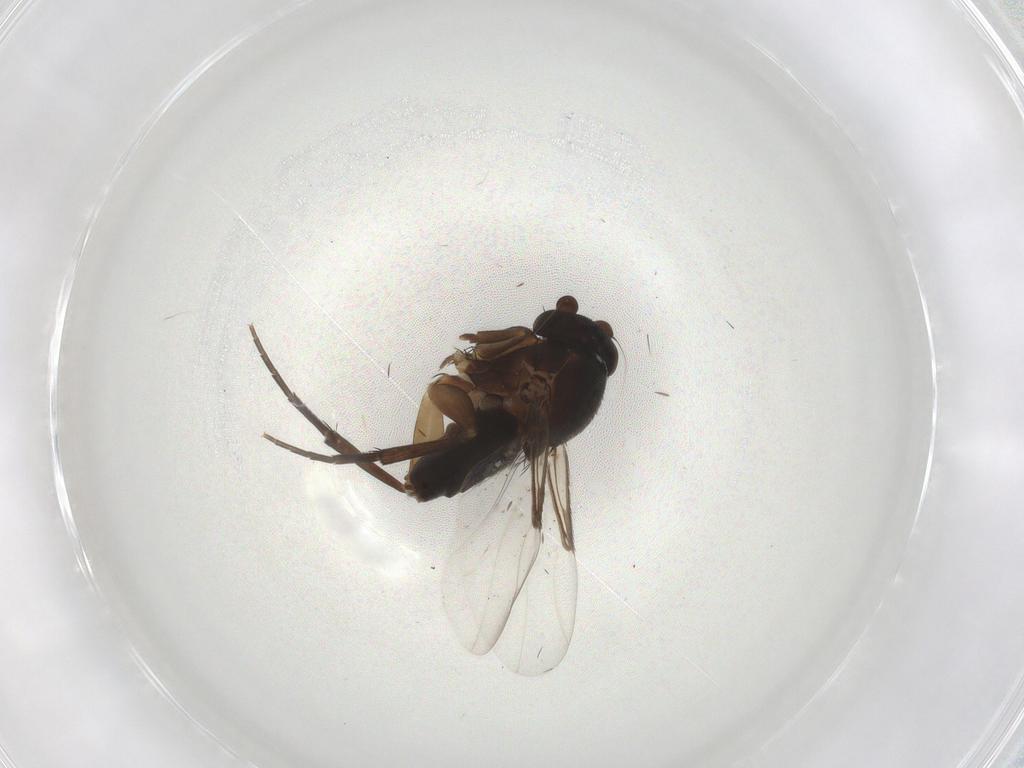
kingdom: Animalia
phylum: Arthropoda
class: Insecta
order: Diptera
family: Phoridae
